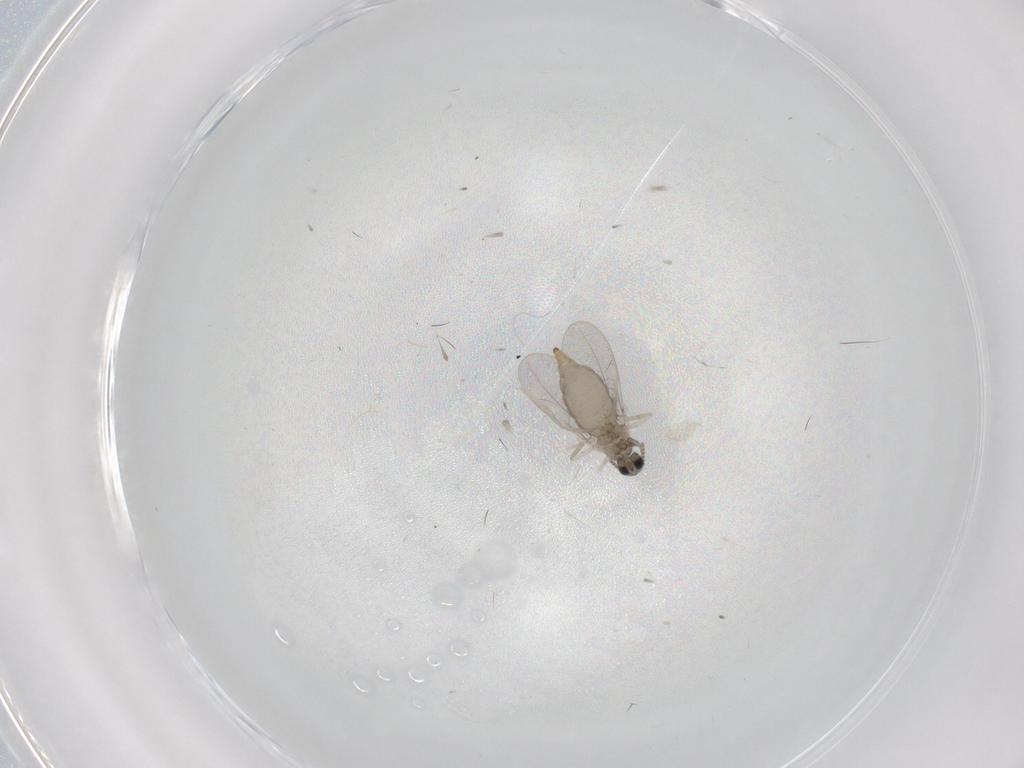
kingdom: Animalia
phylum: Arthropoda
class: Insecta
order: Diptera
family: Cecidomyiidae
